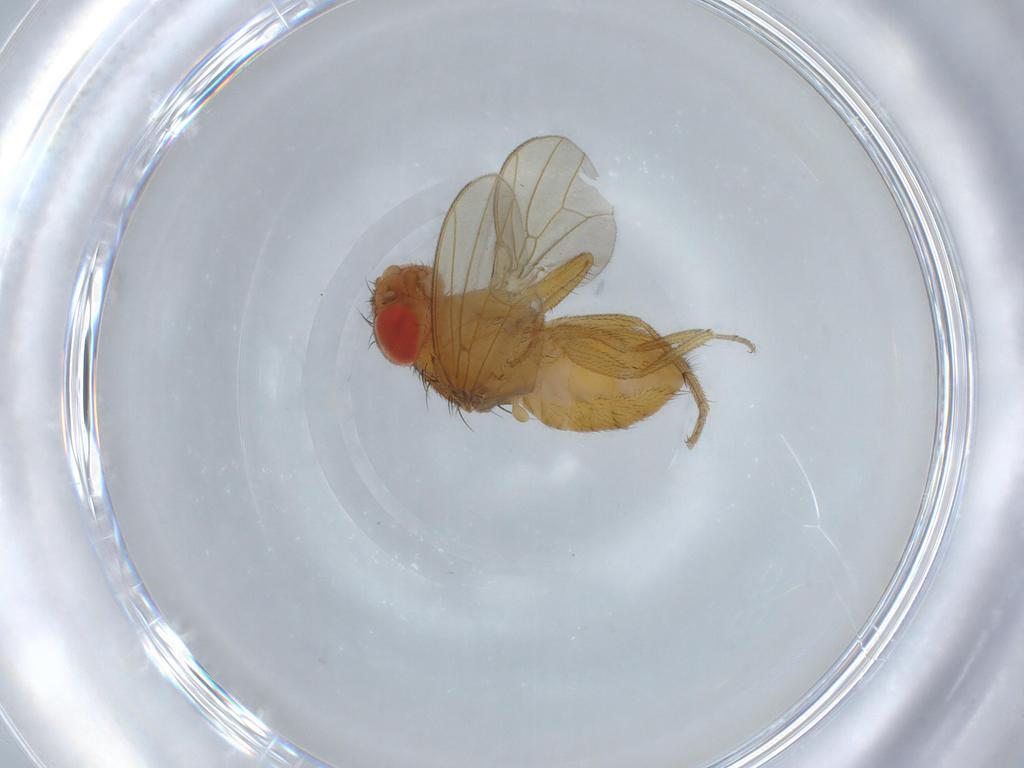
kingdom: Animalia
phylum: Arthropoda
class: Insecta
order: Diptera
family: Drosophilidae
